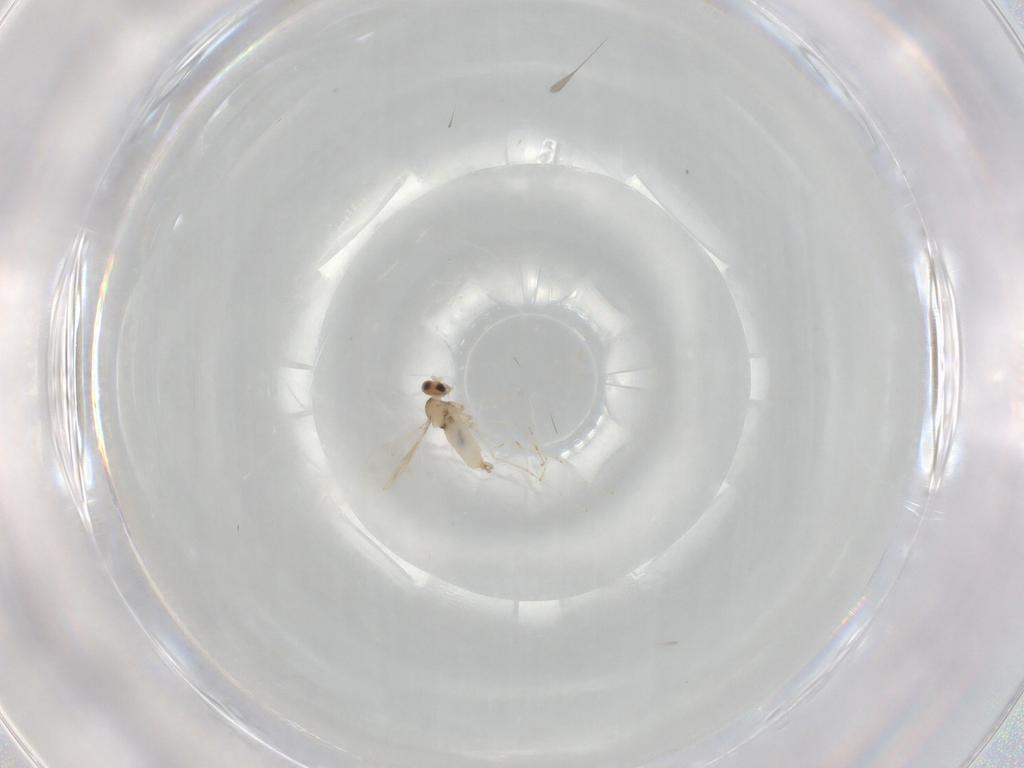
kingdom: Animalia
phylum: Arthropoda
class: Insecta
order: Diptera
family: Cecidomyiidae
